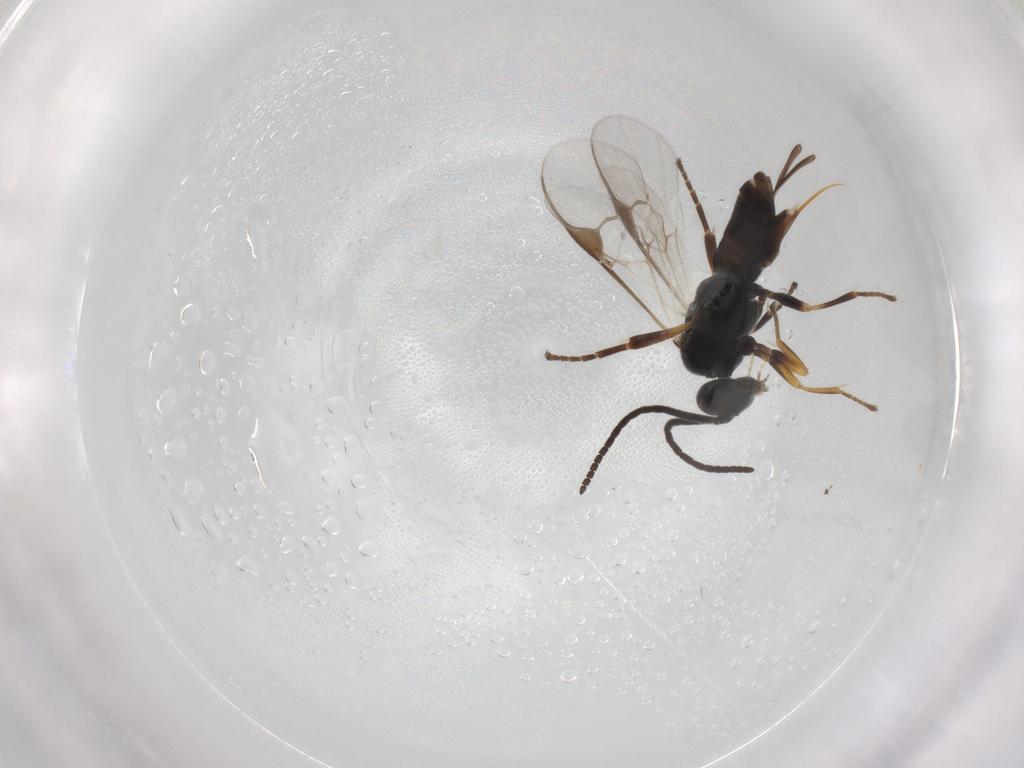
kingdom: Animalia
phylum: Arthropoda
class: Insecta
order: Hymenoptera
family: Braconidae
